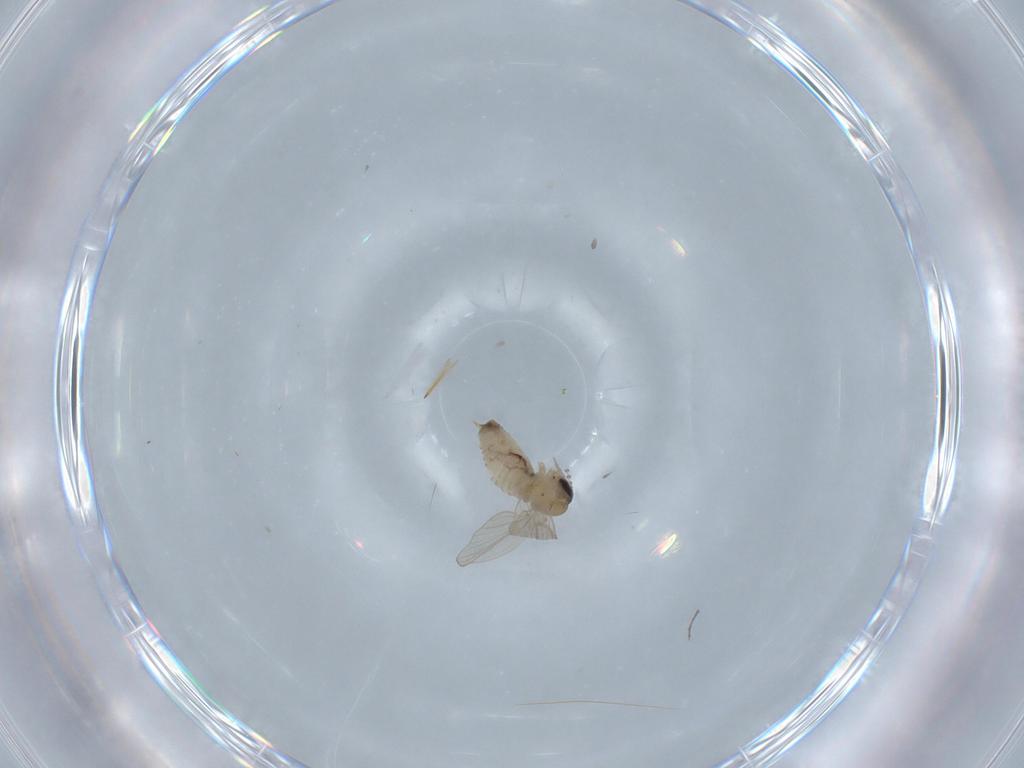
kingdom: Animalia
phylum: Arthropoda
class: Insecta
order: Diptera
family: Psychodidae
